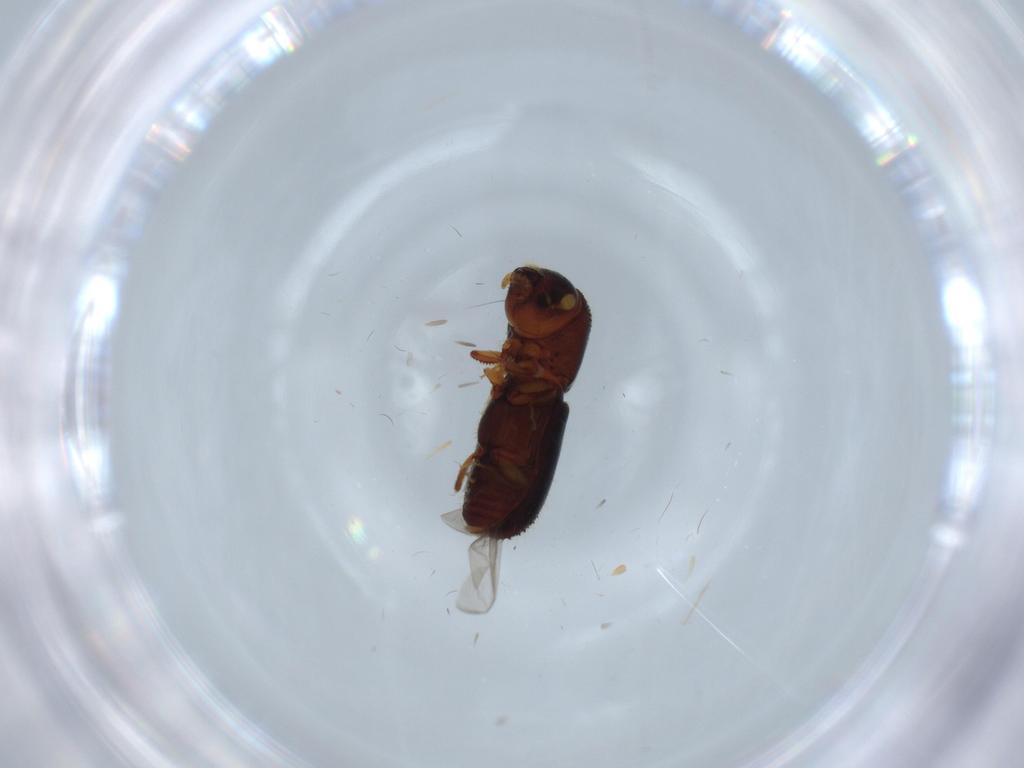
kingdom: Animalia
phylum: Arthropoda
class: Insecta
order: Coleoptera
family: Curculionidae
